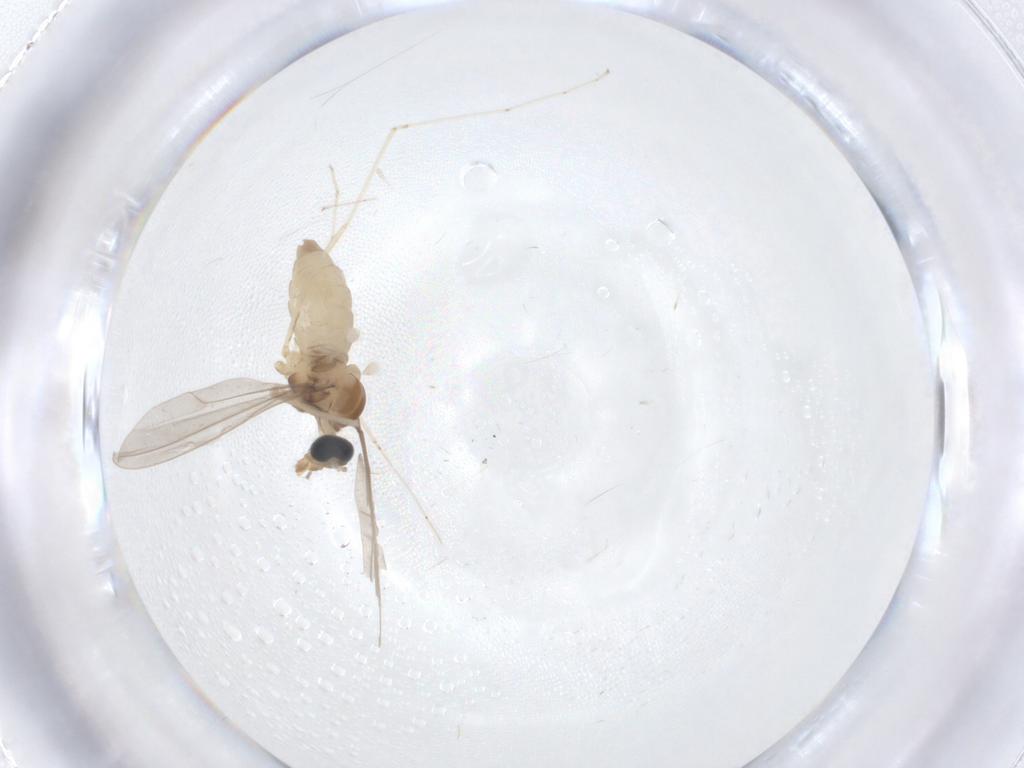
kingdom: Animalia
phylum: Arthropoda
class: Insecta
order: Diptera
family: Cecidomyiidae
